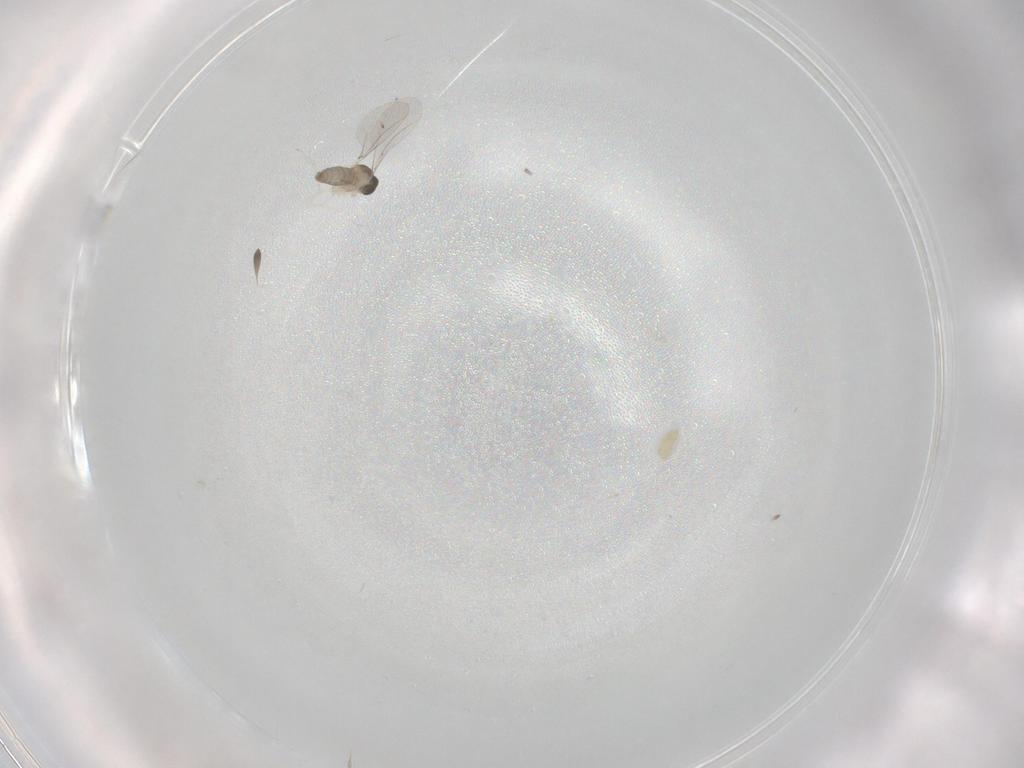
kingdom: Animalia
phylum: Arthropoda
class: Insecta
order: Diptera
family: Cecidomyiidae
